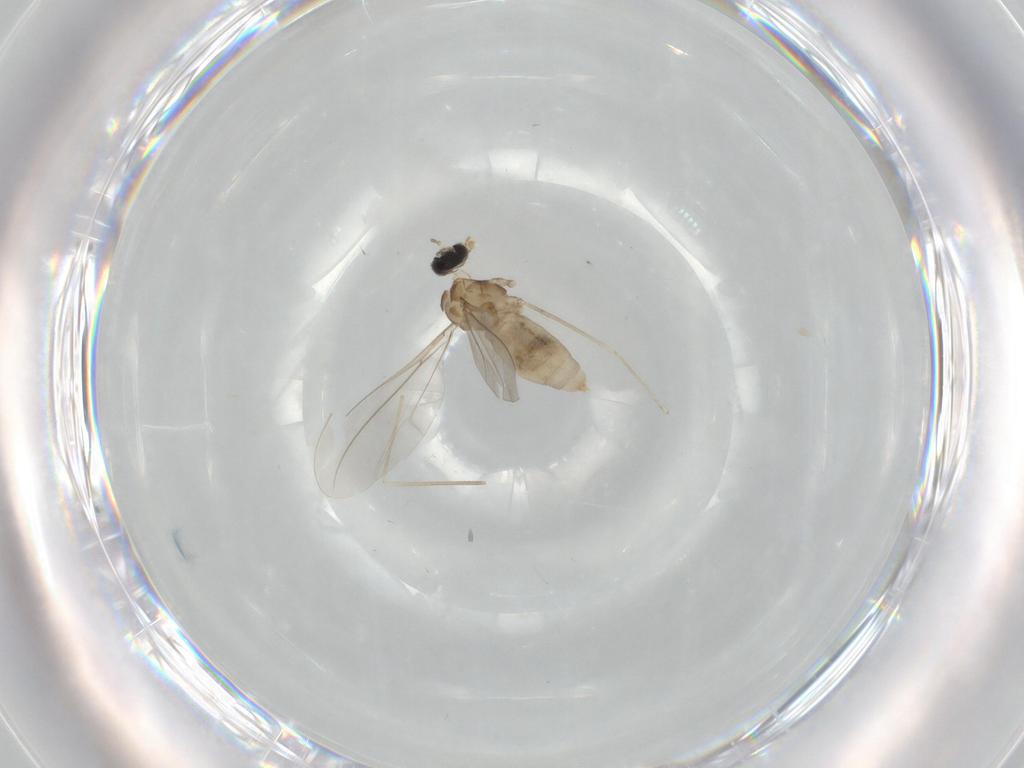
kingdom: Animalia
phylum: Arthropoda
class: Insecta
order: Diptera
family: Cecidomyiidae
